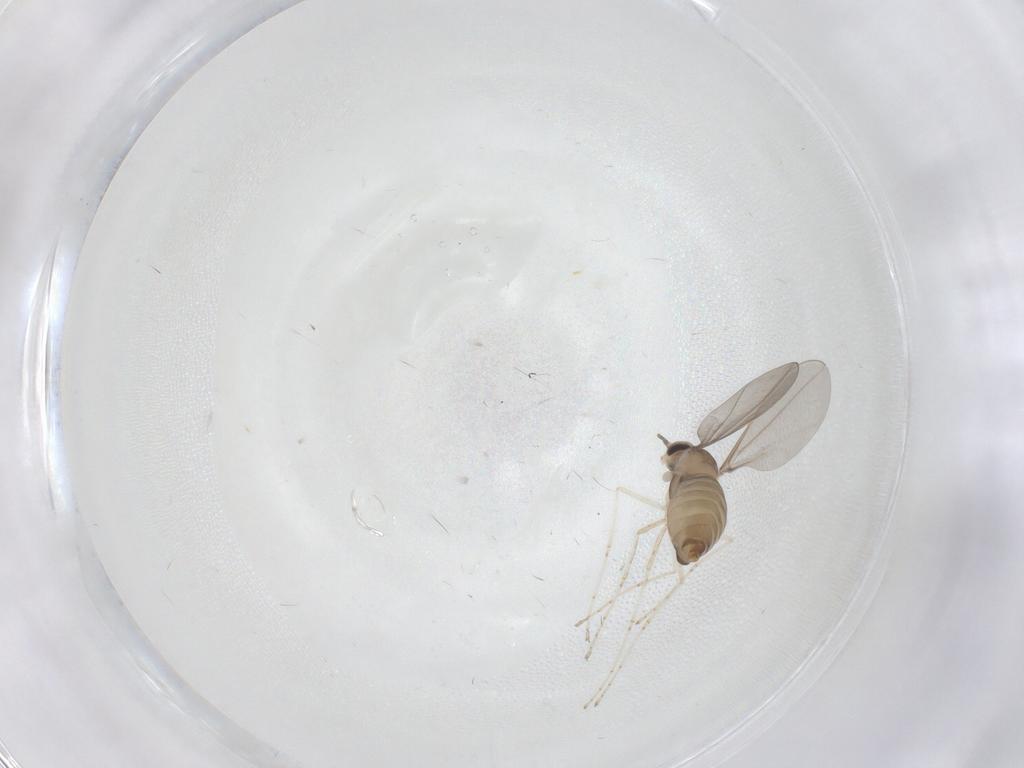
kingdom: Animalia
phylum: Arthropoda
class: Insecta
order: Diptera
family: Cecidomyiidae
